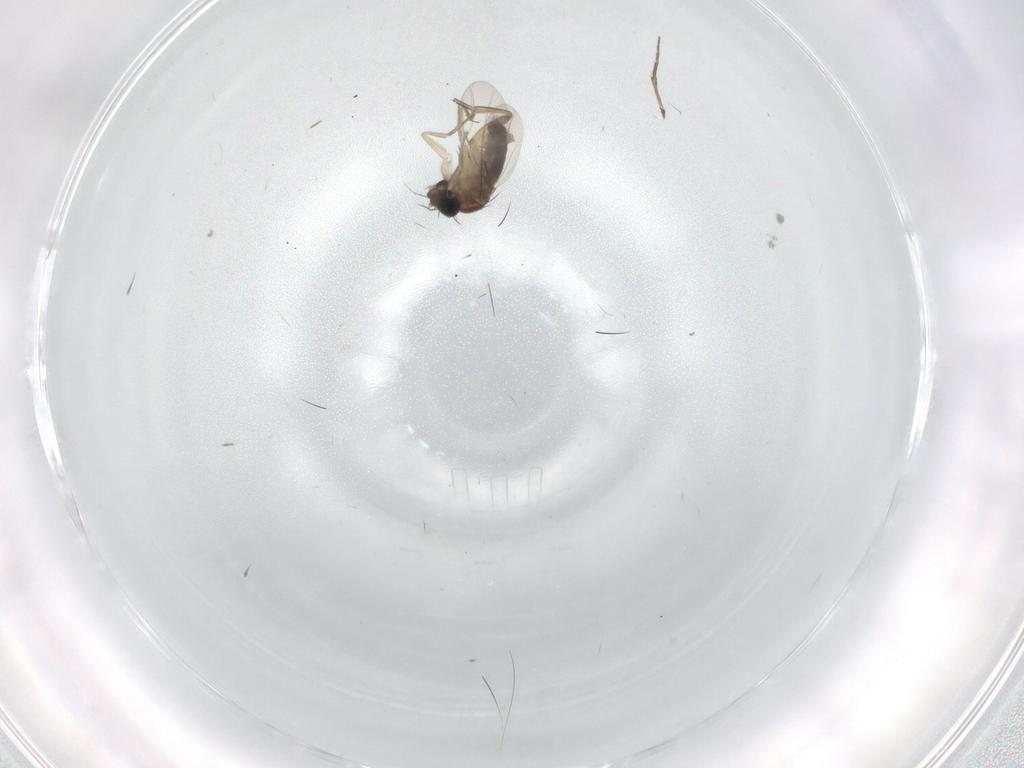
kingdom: Animalia
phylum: Arthropoda
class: Insecta
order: Diptera
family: Phoridae
